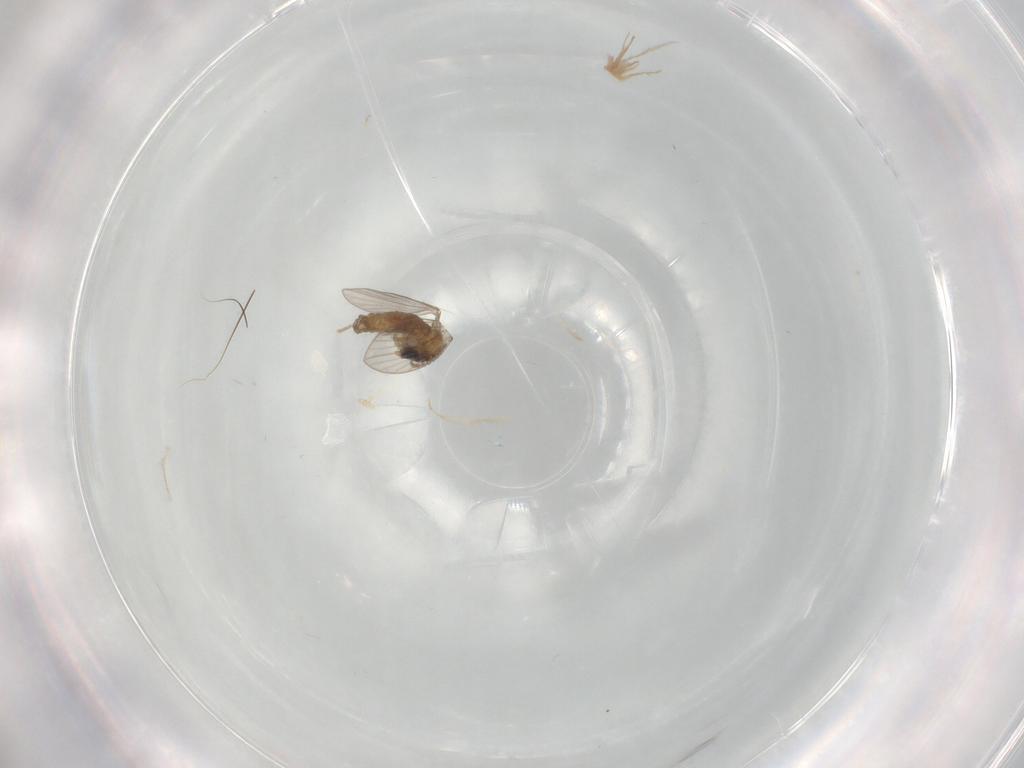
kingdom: Animalia
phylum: Arthropoda
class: Insecta
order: Diptera
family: Psychodidae
